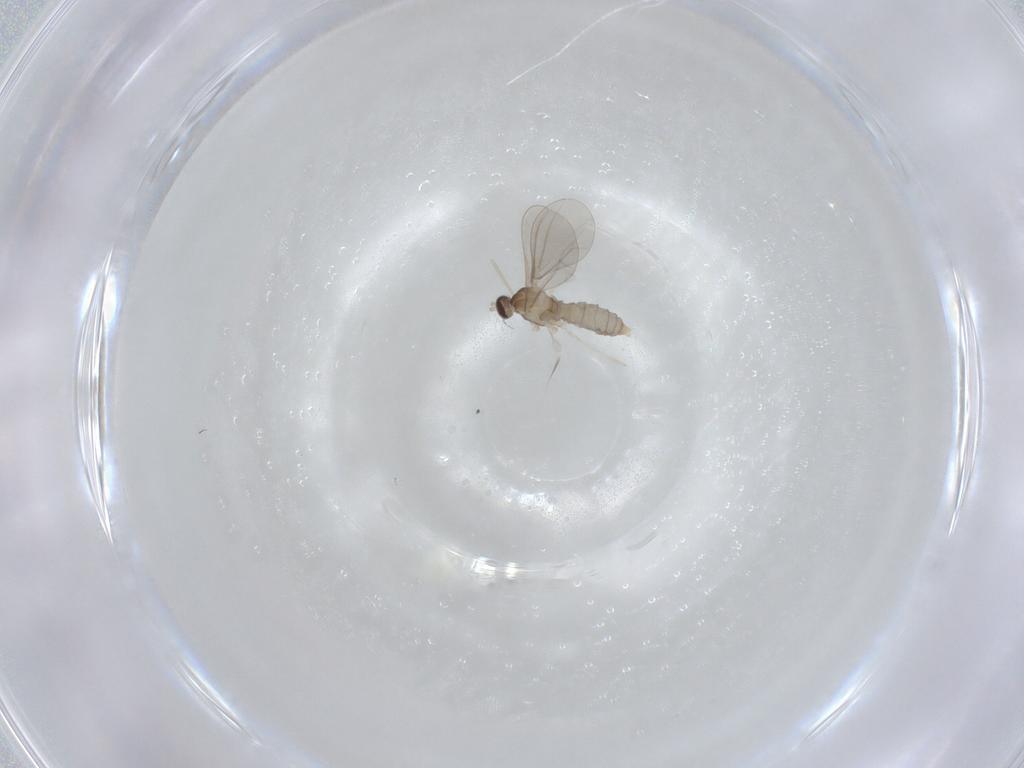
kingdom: Animalia
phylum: Arthropoda
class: Insecta
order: Diptera
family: Cecidomyiidae
